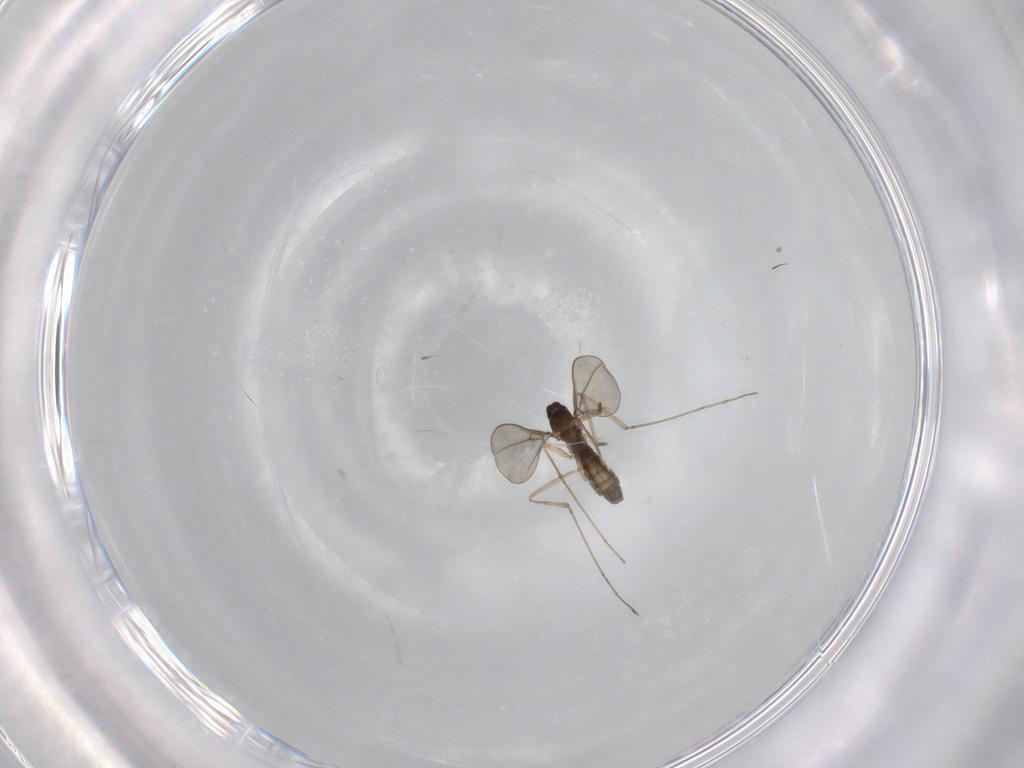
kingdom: Animalia
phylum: Arthropoda
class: Insecta
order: Diptera
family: Cecidomyiidae
